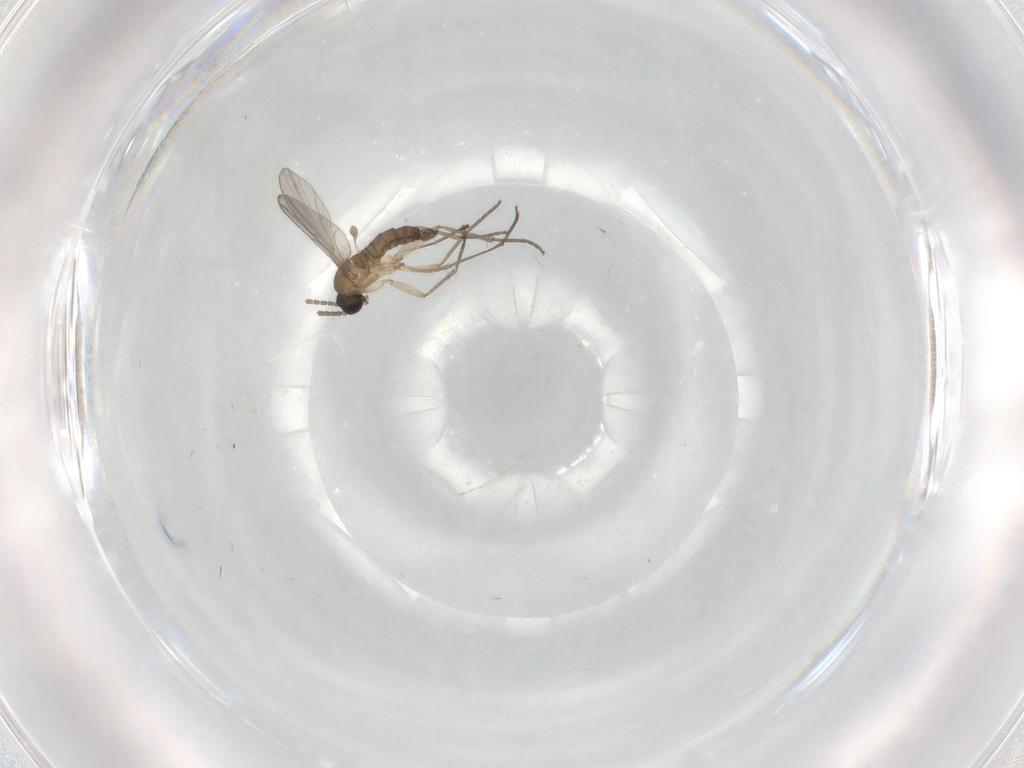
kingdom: Animalia
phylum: Arthropoda
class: Insecta
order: Diptera
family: Sciaridae
